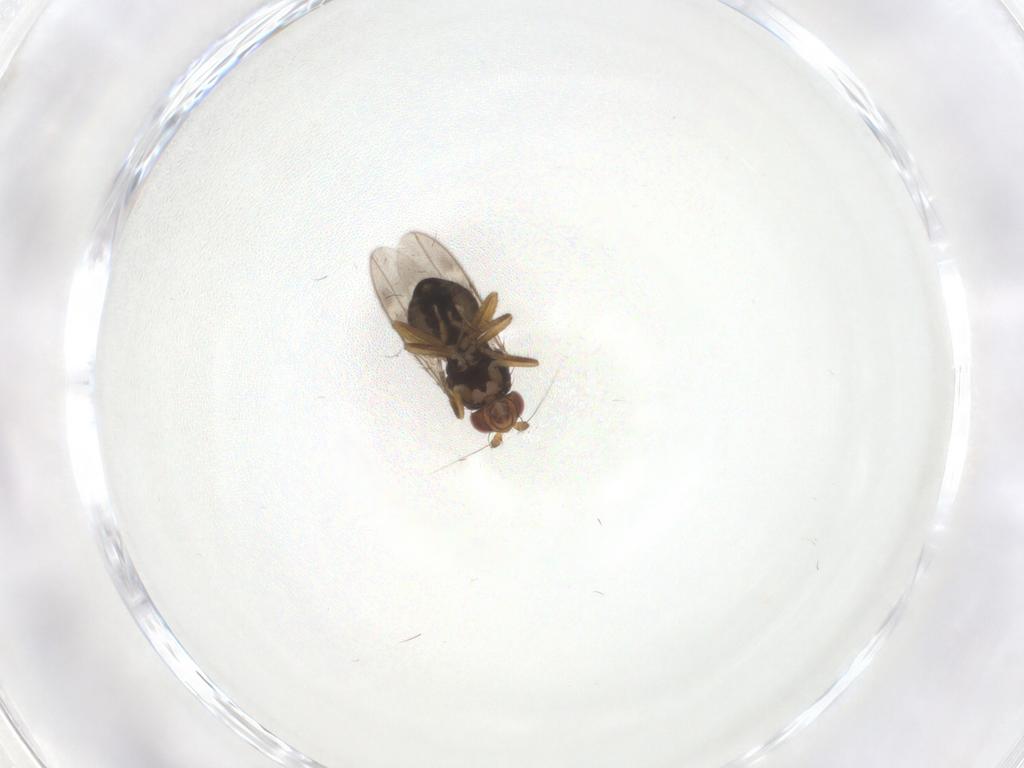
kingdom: Animalia
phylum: Arthropoda
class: Insecta
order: Diptera
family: Sphaeroceridae
